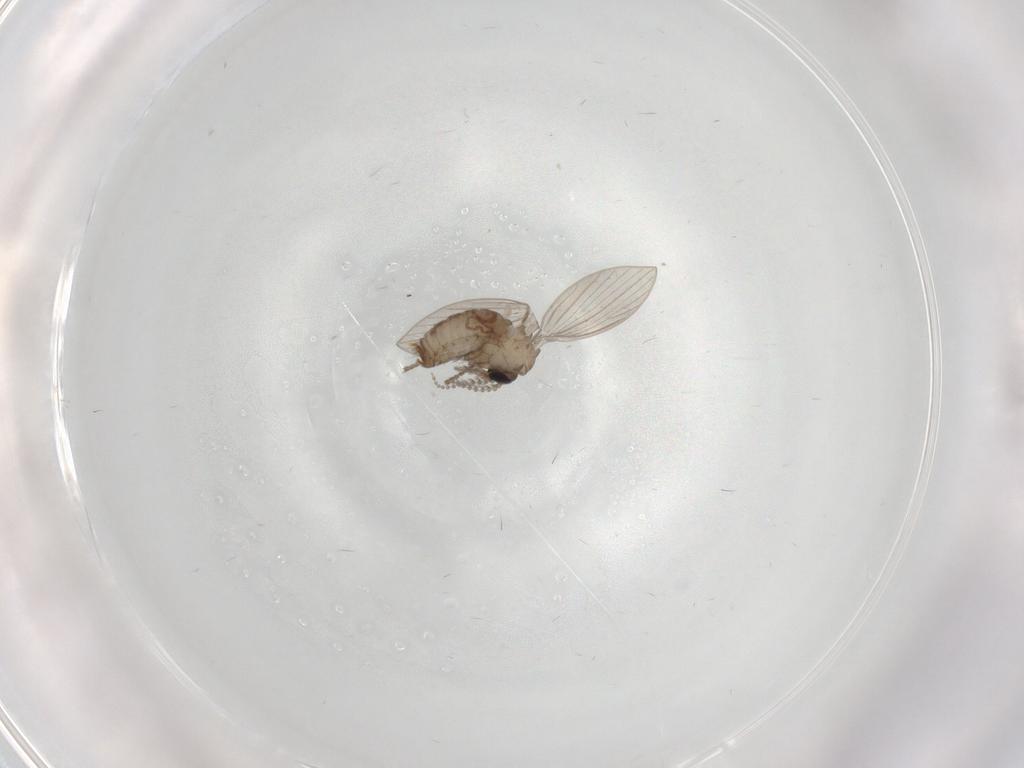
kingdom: Animalia
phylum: Arthropoda
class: Insecta
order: Diptera
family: Psychodidae
